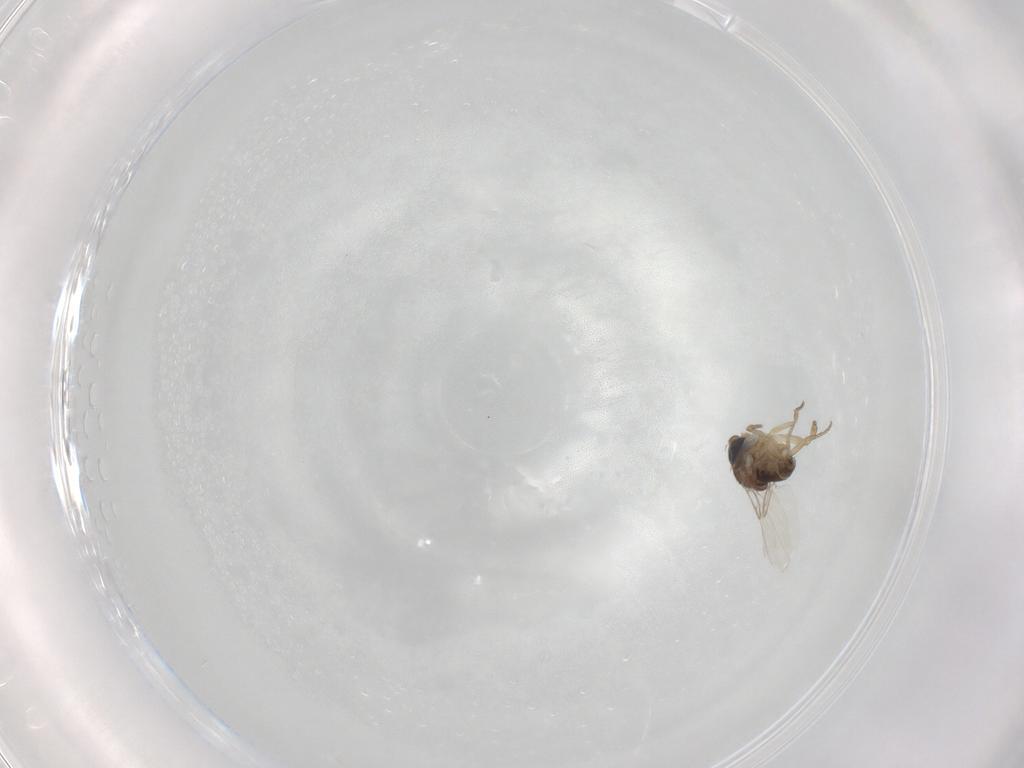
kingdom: Animalia
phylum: Arthropoda
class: Insecta
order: Diptera
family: Phoridae
